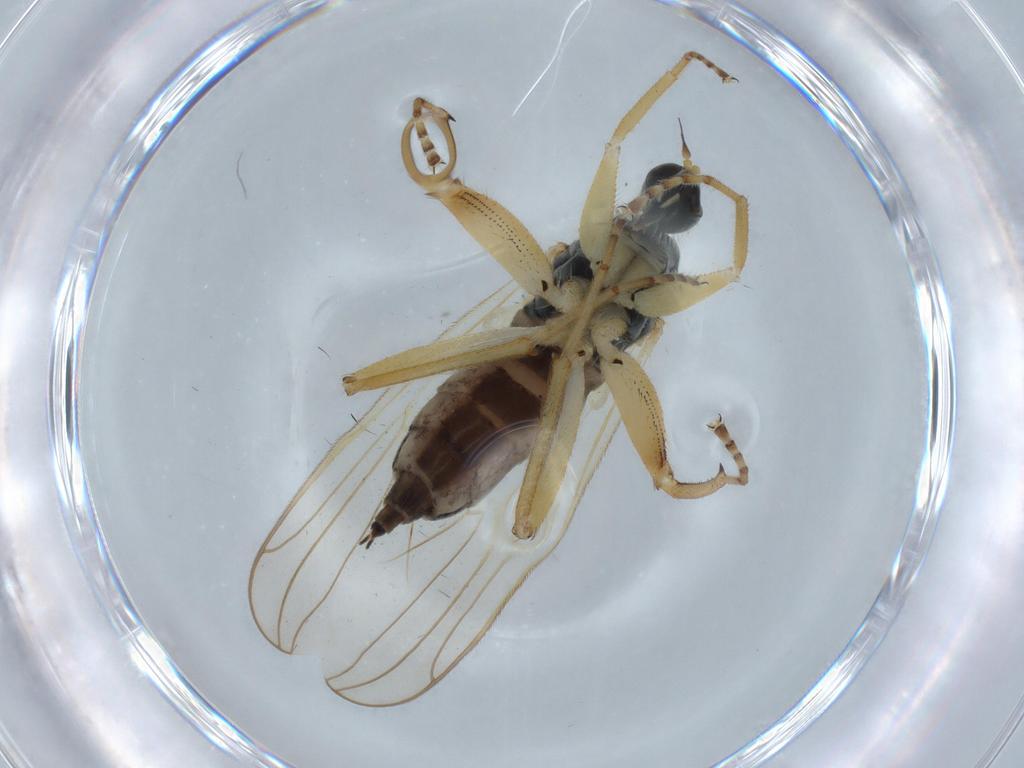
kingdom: Animalia
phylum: Arthropoda
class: Insecta
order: Diptera
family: Hybotidae
